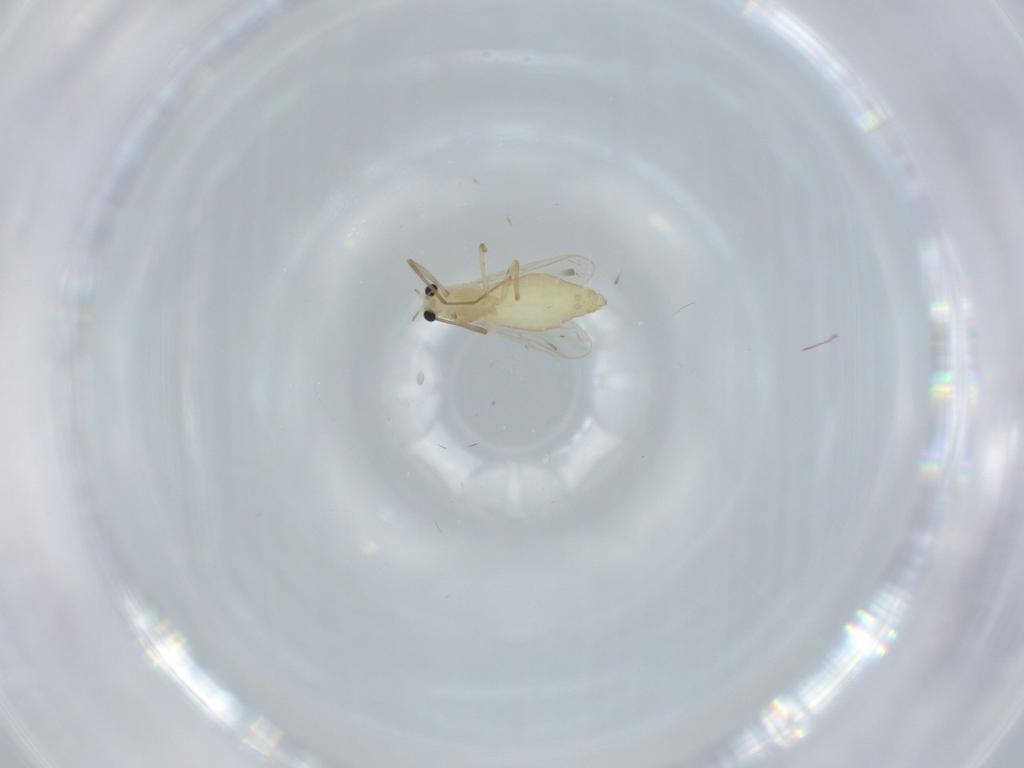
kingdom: Animalia
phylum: Arthropoda
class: Insecta
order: Diptera
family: Chironomidae
